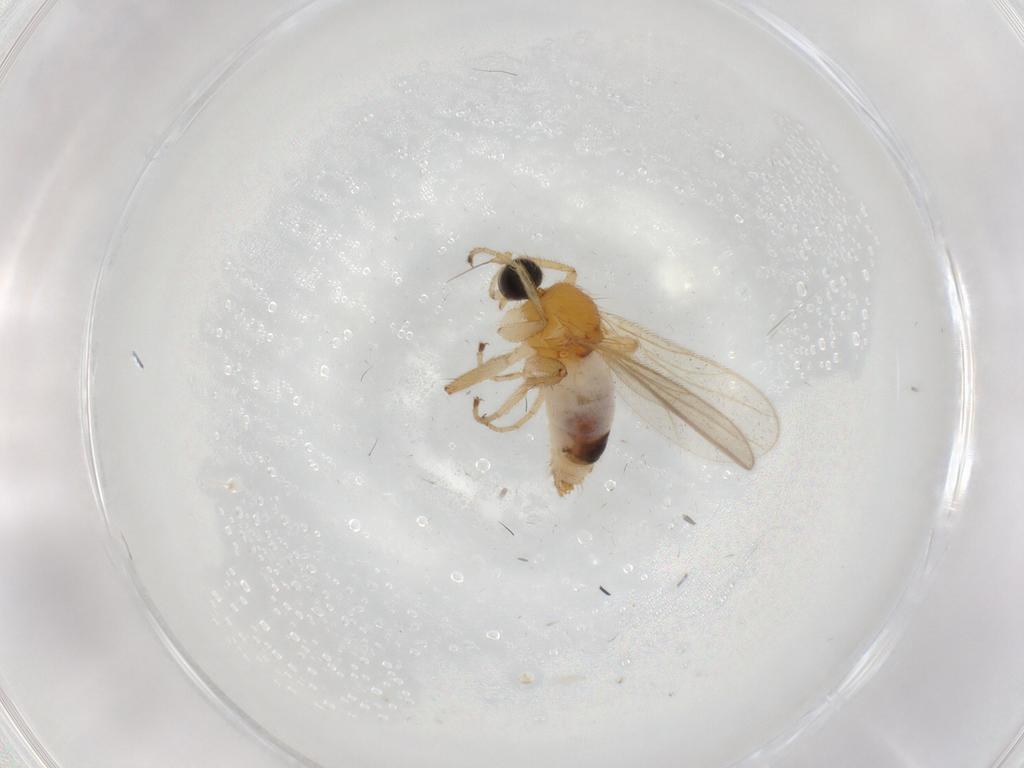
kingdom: Animalia
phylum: Arthropoda
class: Insecta
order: Diptera
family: Hybotidae
